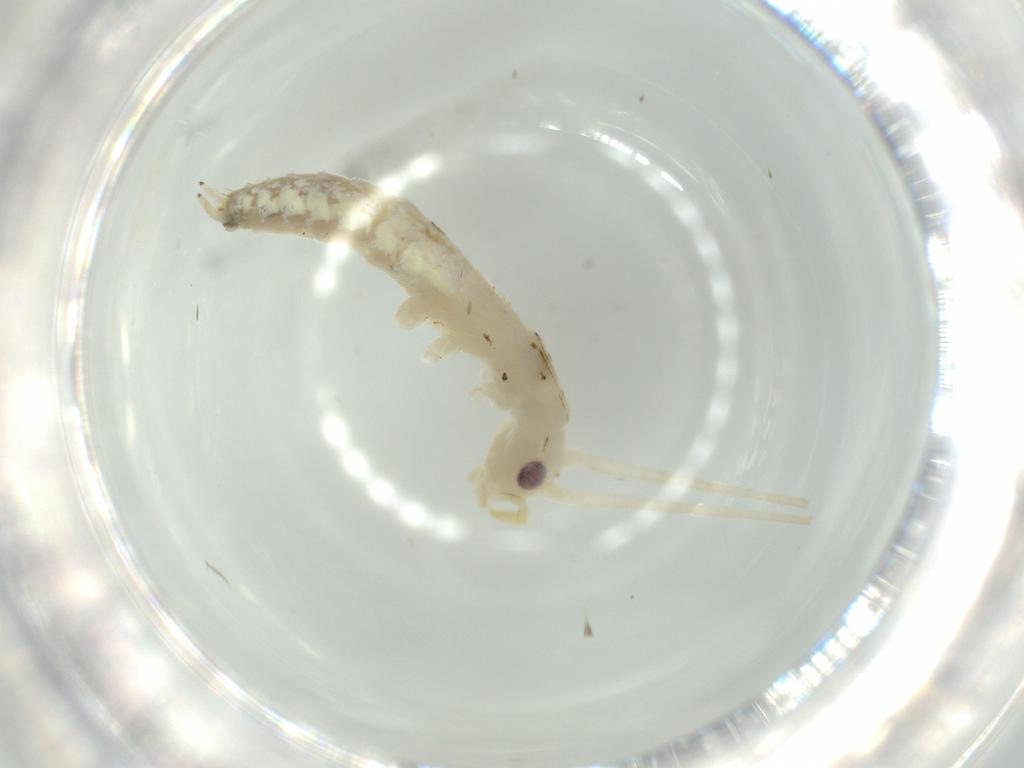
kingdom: Animalia
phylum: Arthropoda
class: Insecta
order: Orthoptera
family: Oecanthidae
